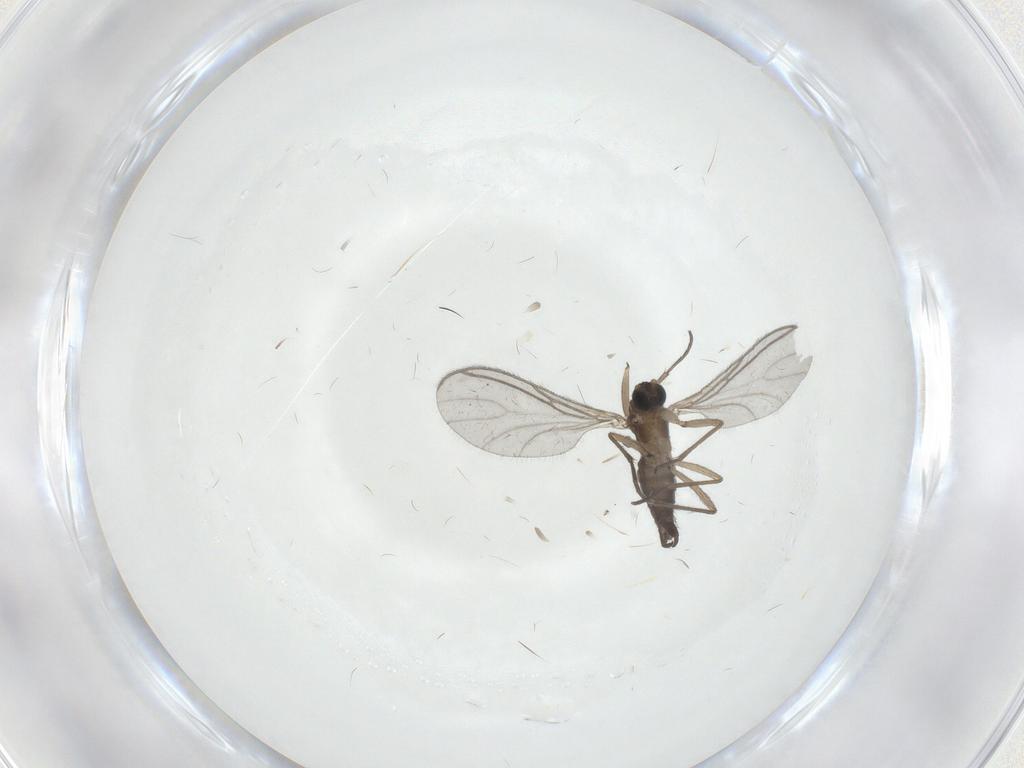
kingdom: Animalia
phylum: Arthropoda
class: Insecta
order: Diptera
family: Sciaridae
